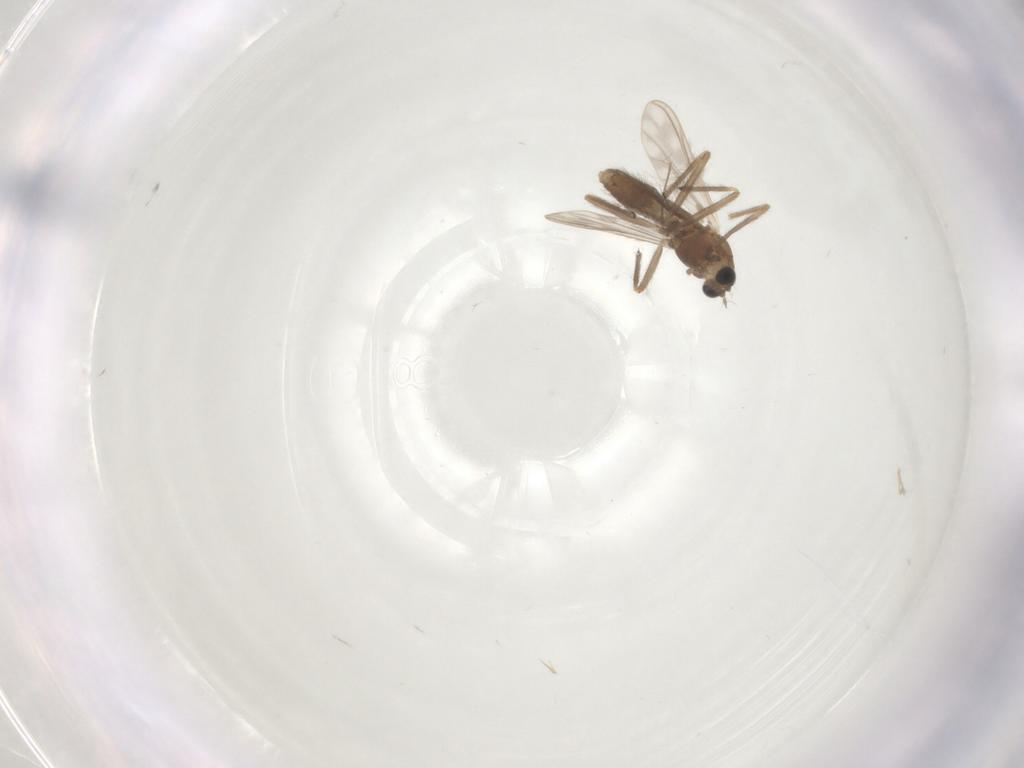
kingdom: Animalia
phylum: Arthropoda
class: Insecta
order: Diptera
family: Chironomidae
